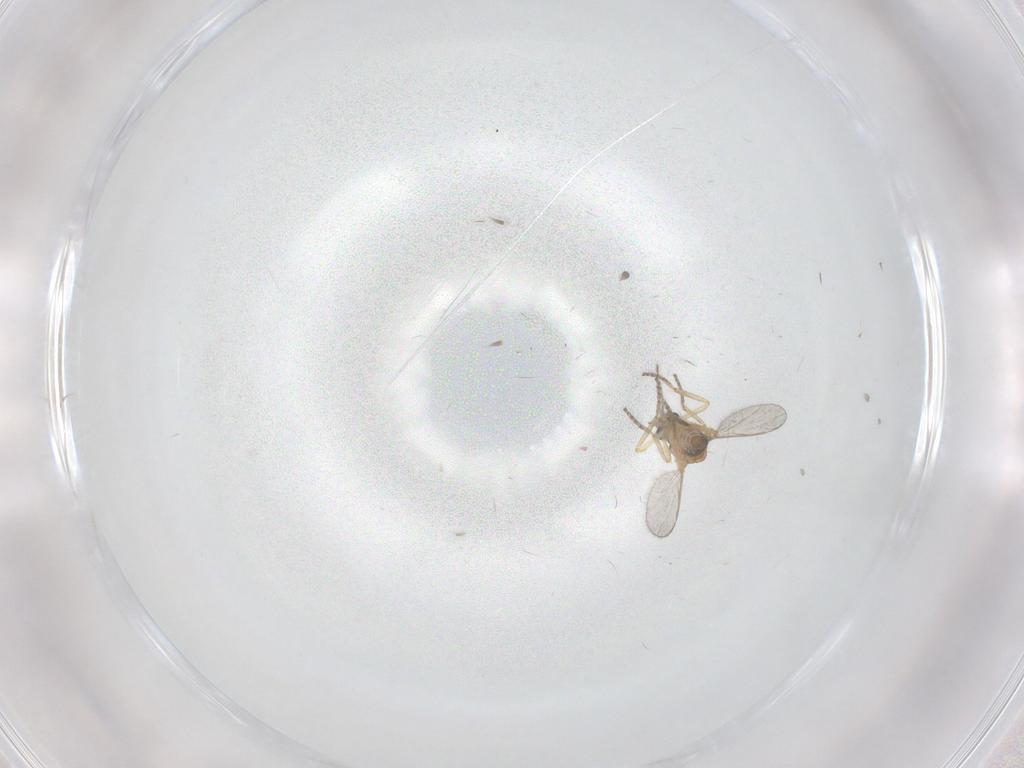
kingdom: Animalia
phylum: Arthropoda
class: Insecta
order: Diptera
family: Ceratopogonidae
